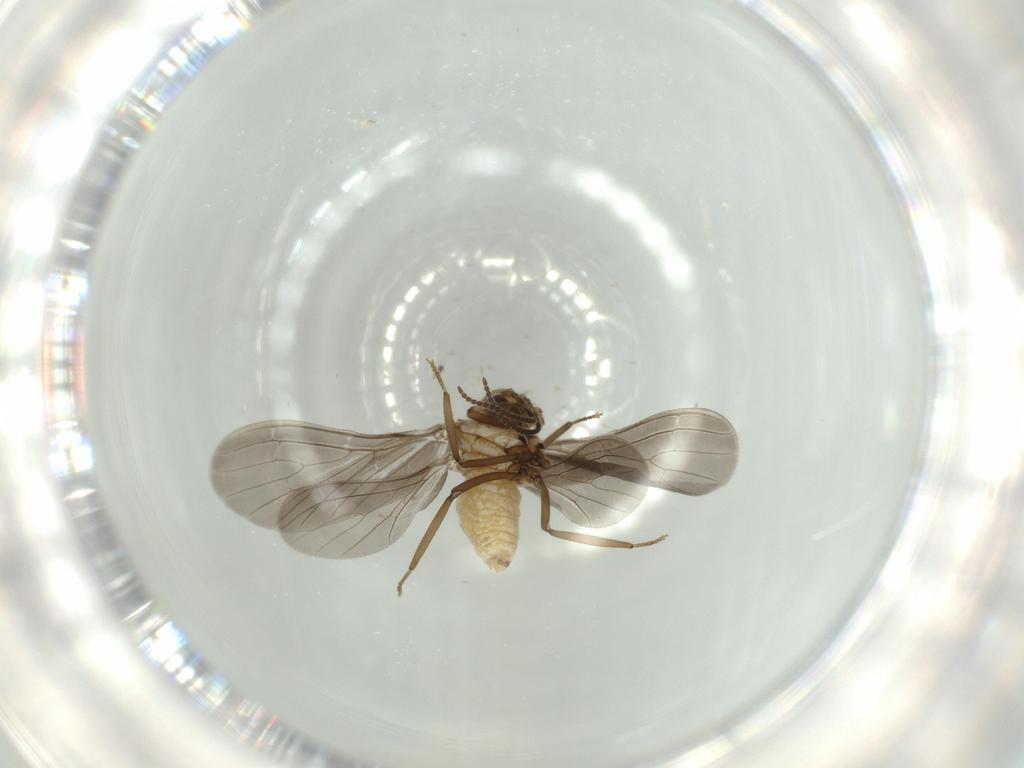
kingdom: Animalia
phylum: Arthropoda
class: Insecta
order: Neuroptera
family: Coniopterygidae
